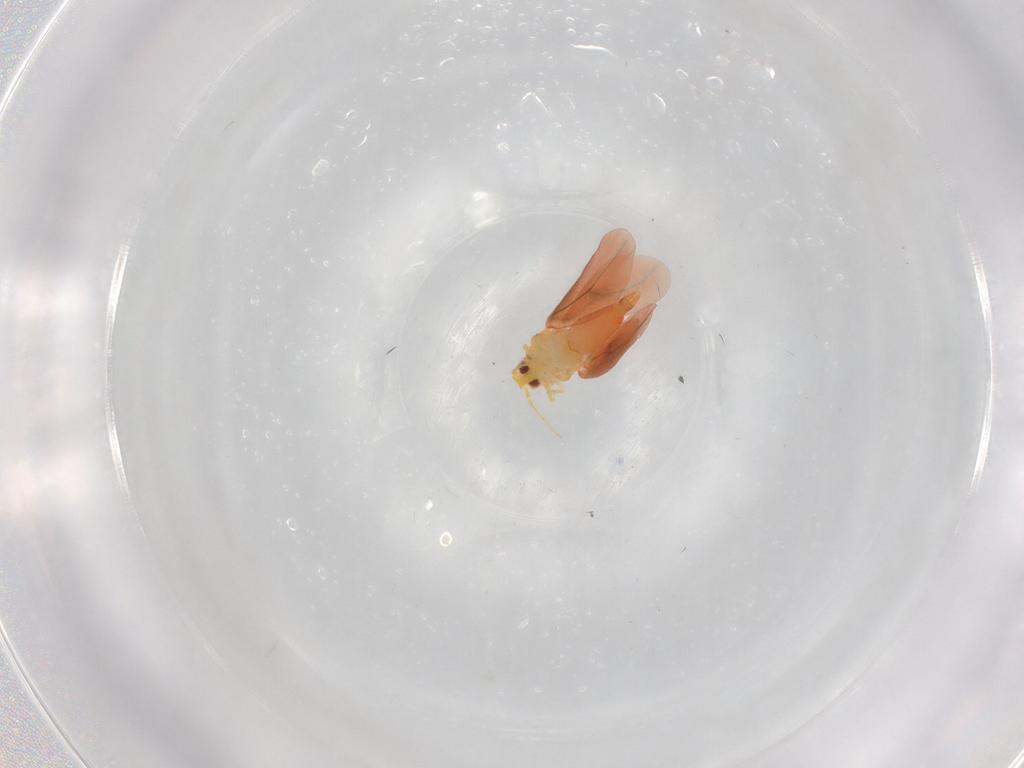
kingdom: Animalia
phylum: Arthropoda
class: Insecta
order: Hemiptera
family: Aleyrodidae
